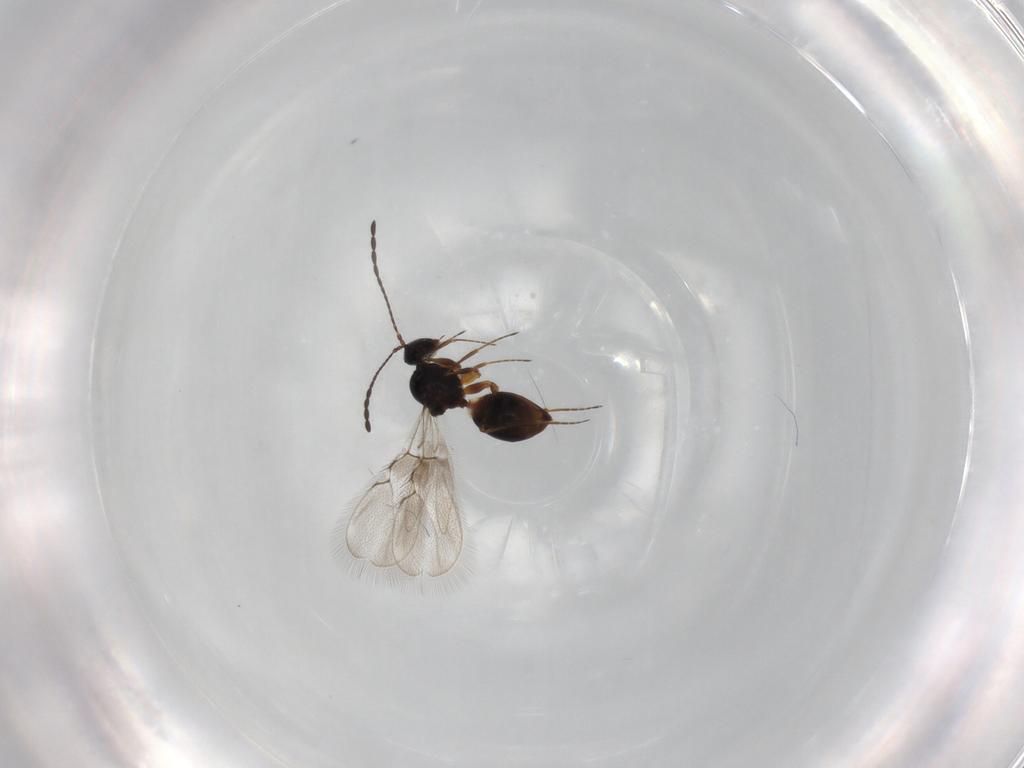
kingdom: Animalia
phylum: Arthropoda
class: Insecta
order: Hymenoptera
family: Figitidae
